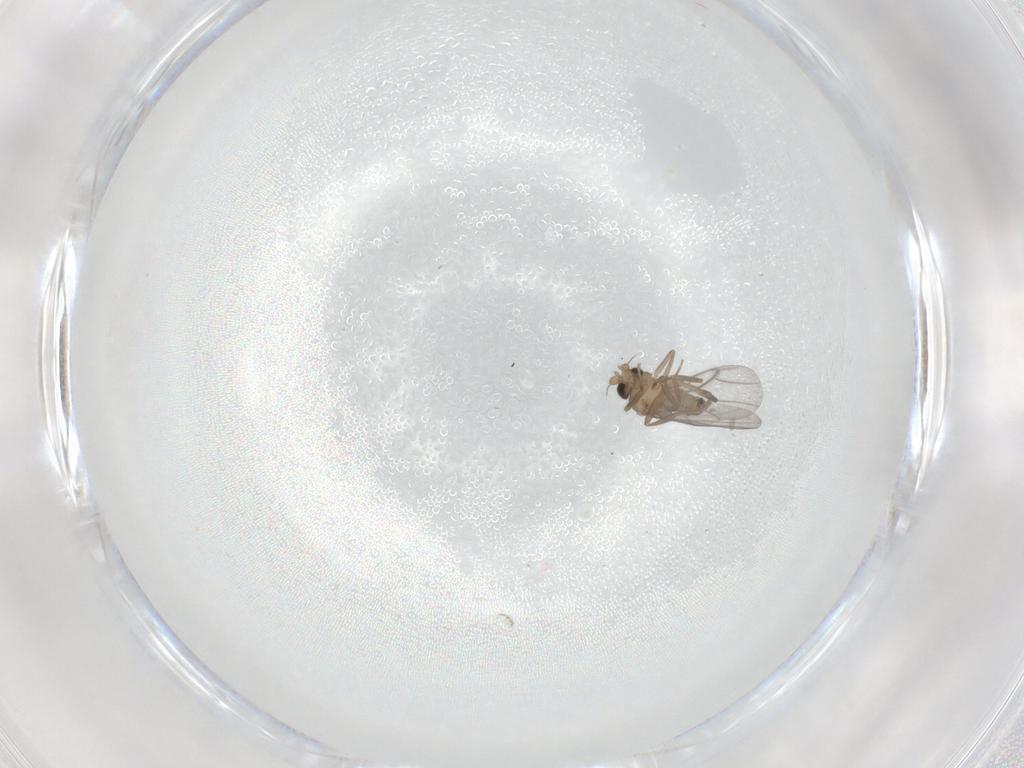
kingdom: Animalia
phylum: Arthropoda
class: Insecta
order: Diptera
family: Chironomidae
